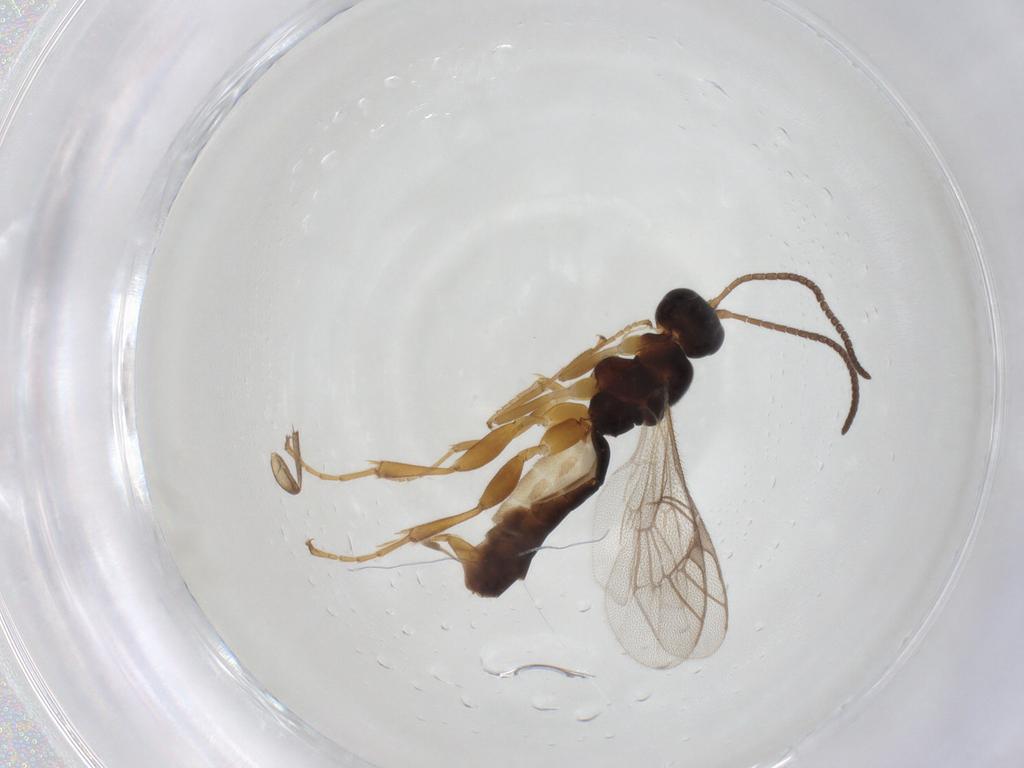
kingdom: Animalia
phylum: Arthropoda
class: Insecta
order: Hymenoptera
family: Ichneumonidae
